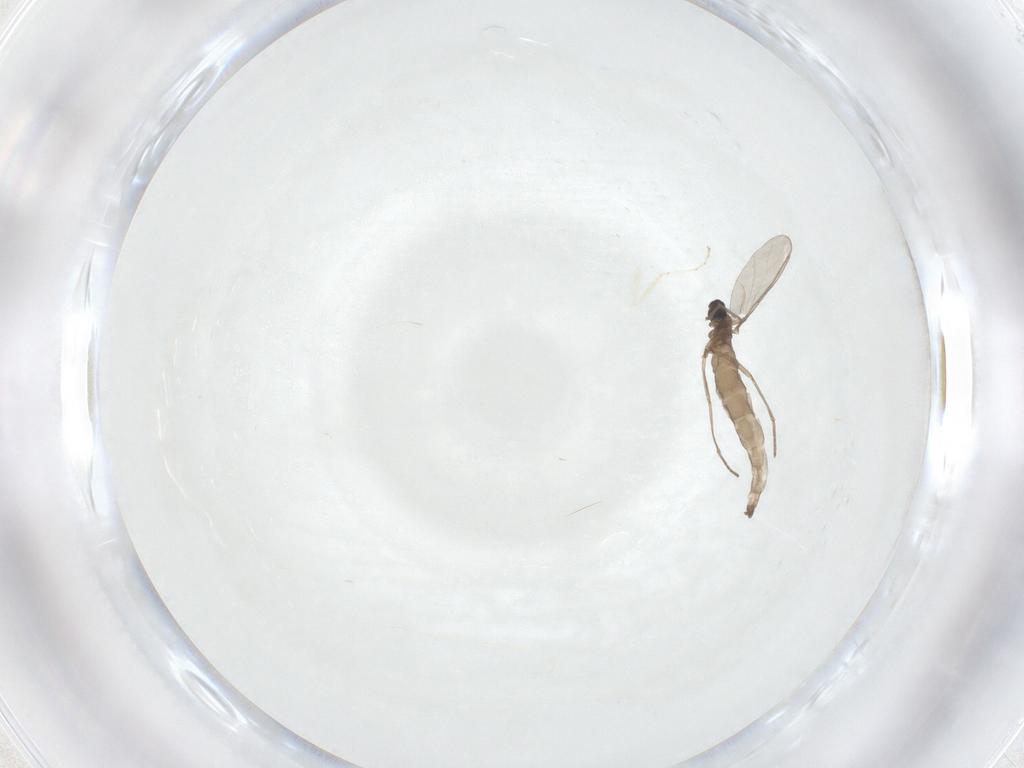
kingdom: Animalia
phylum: Arthropoda
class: Insecta
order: Diptera
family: Cecidomyiidae
